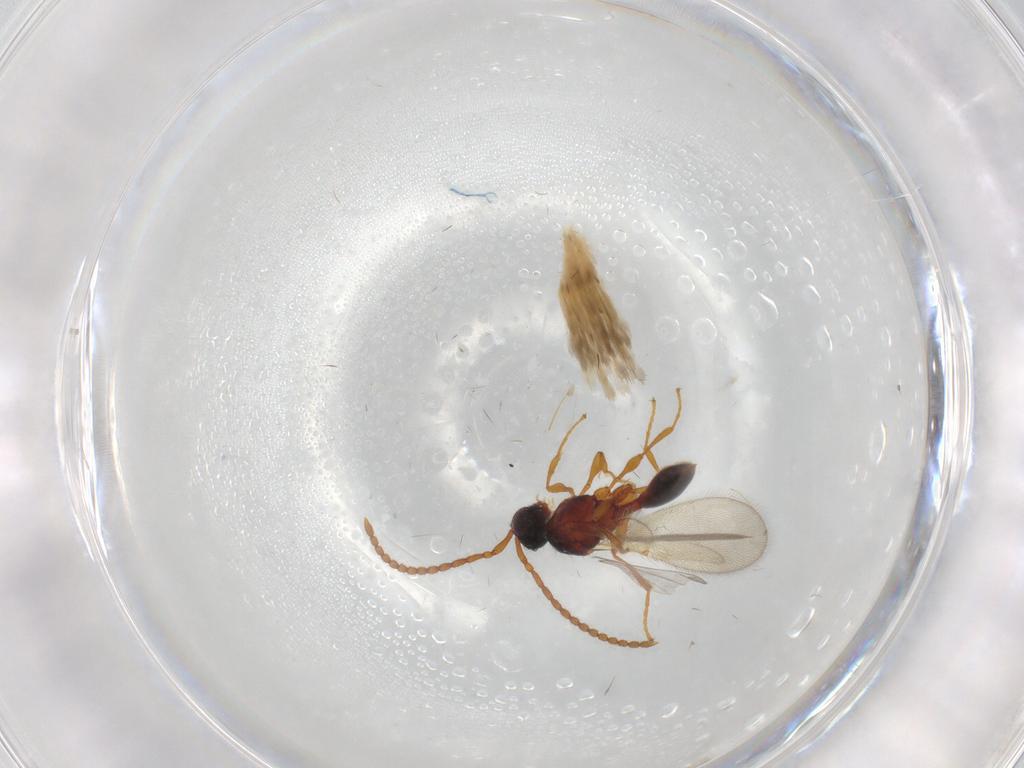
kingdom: Animalia
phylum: Arthropoda
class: Insecta
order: Hymenoptera
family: Diapriidae
